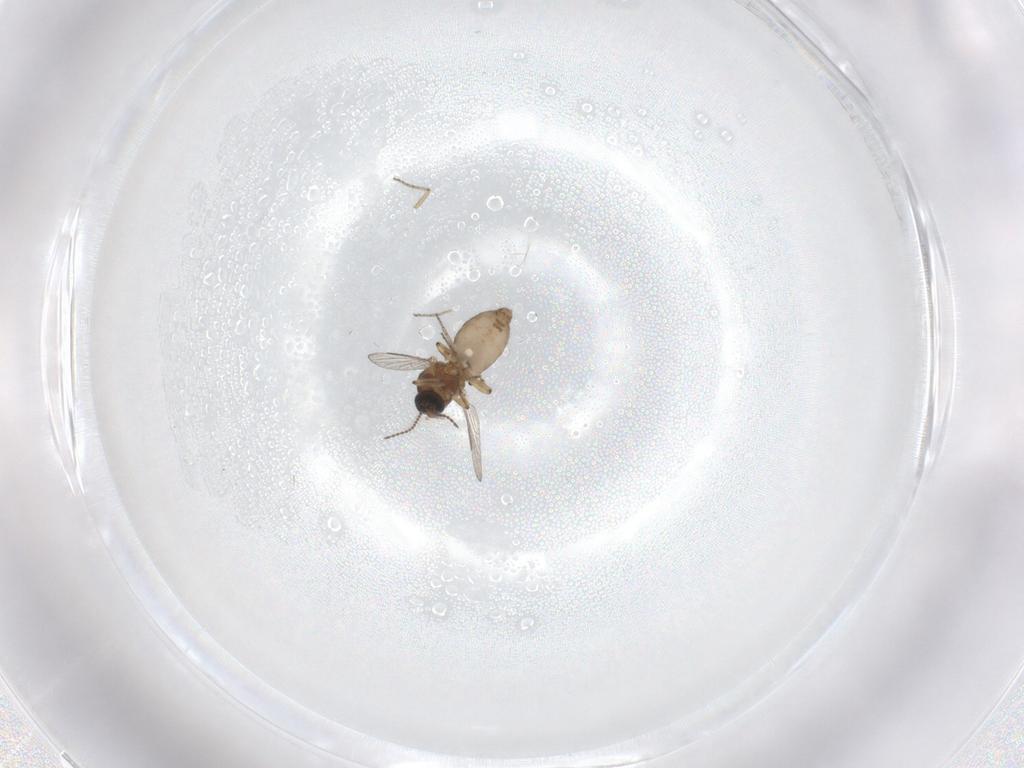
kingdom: Animalia
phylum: Arthropoda
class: Insecta
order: Diptera
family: Ceratopogonidae
